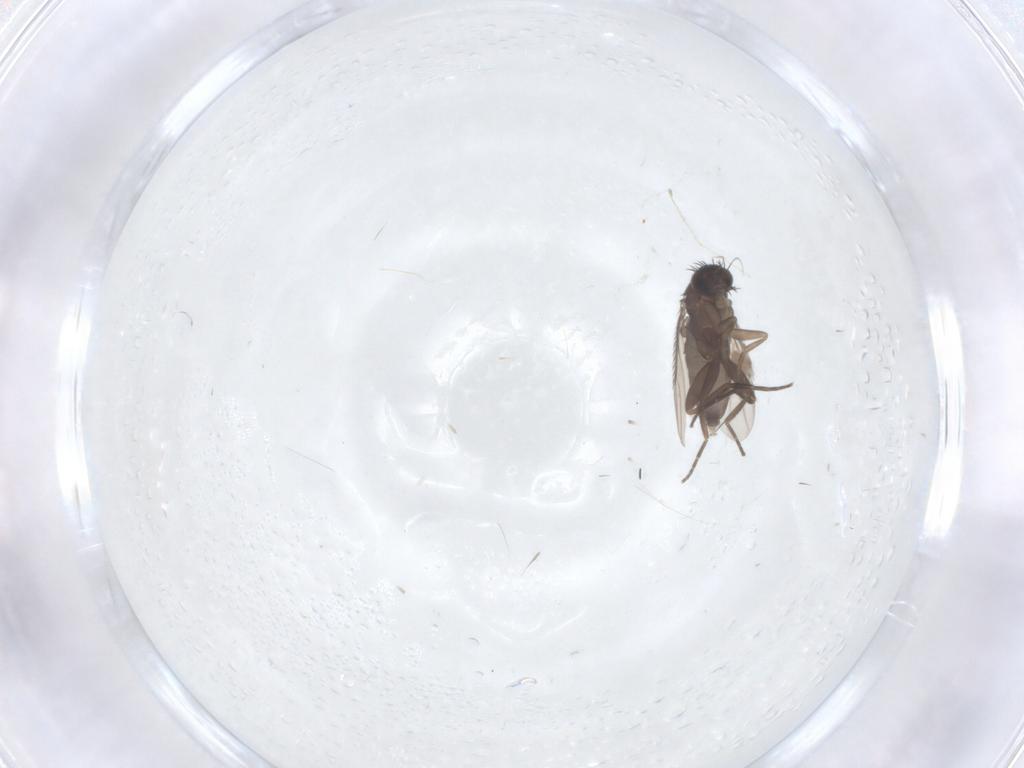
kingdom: Animalia
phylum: Arthropoda
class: Insecta
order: Diptera
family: Phoridae
